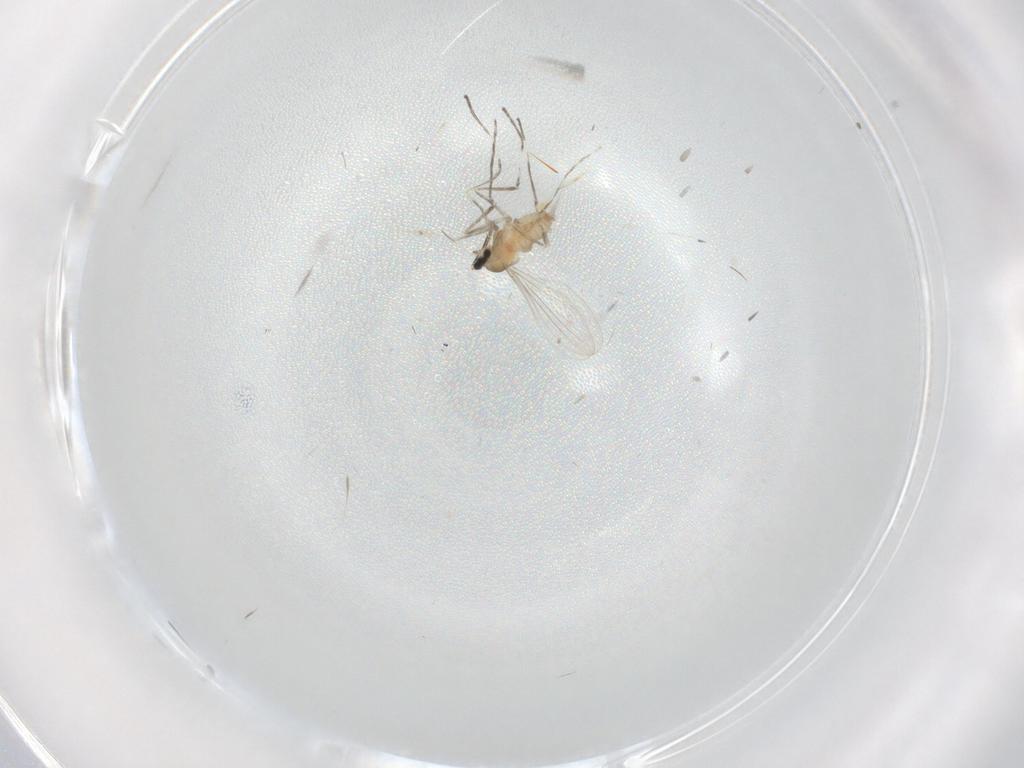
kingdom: Animalia
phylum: Arthropoda
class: Insecta
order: Diptera
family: Cecidomyiidae
